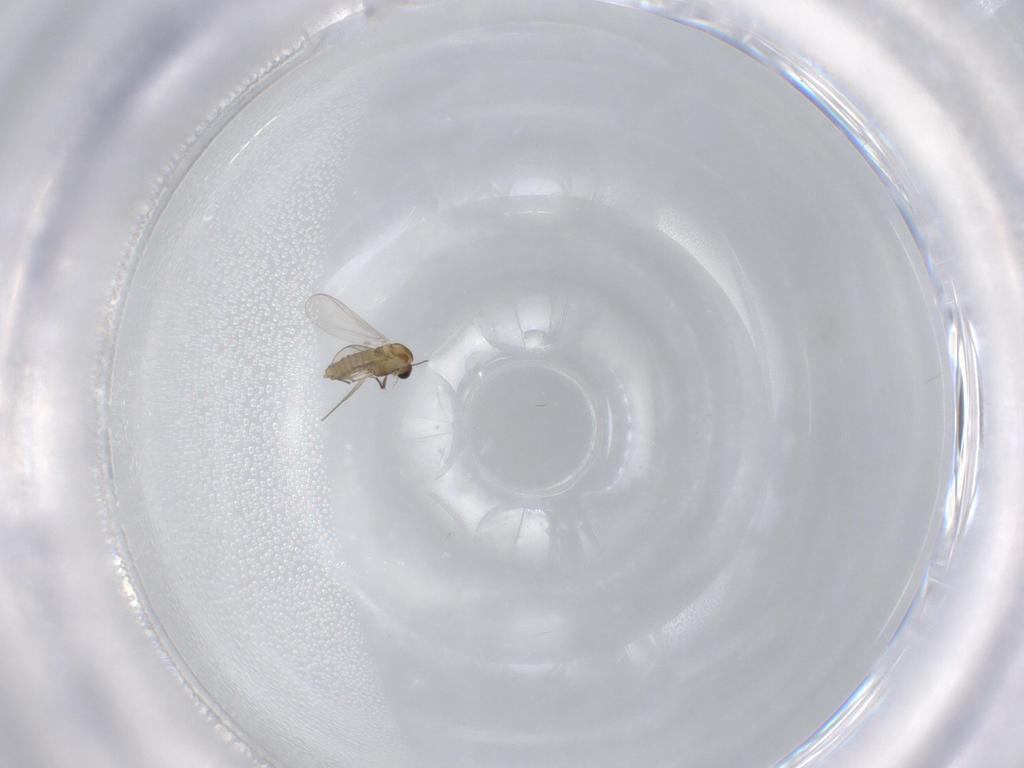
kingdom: Animalia
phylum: Arthropoda
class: Insecta
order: Diptera
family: Chironomidae
